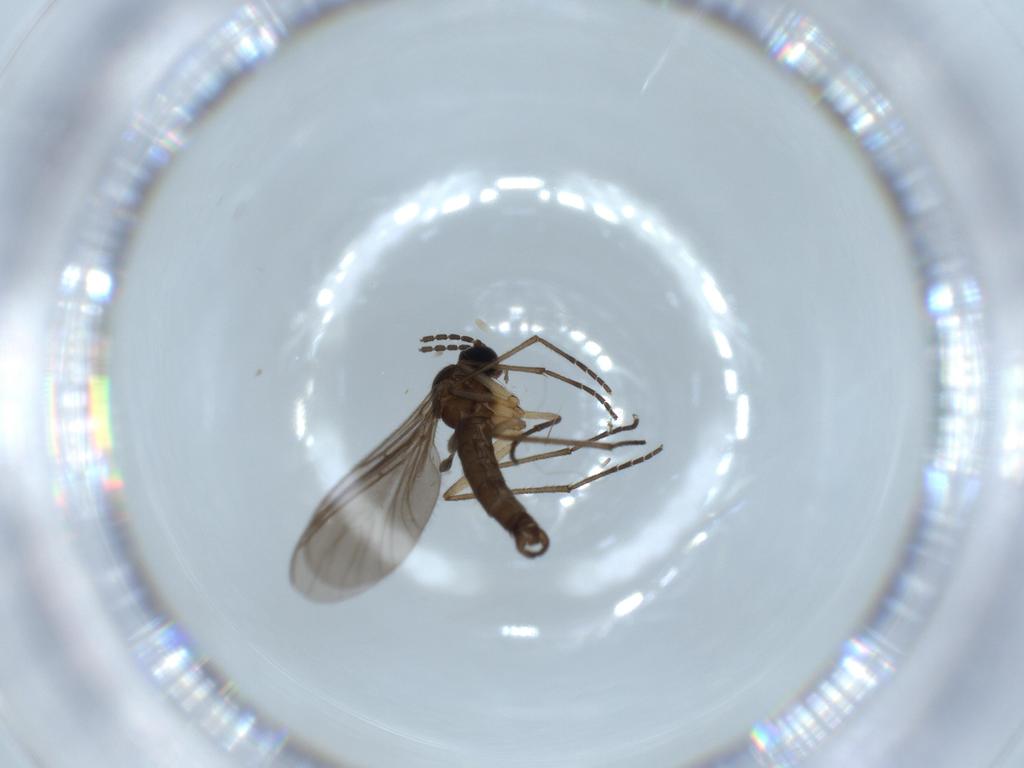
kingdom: Animalia
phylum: Arthropoda
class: Insecta
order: Diptera
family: Sciaridae
